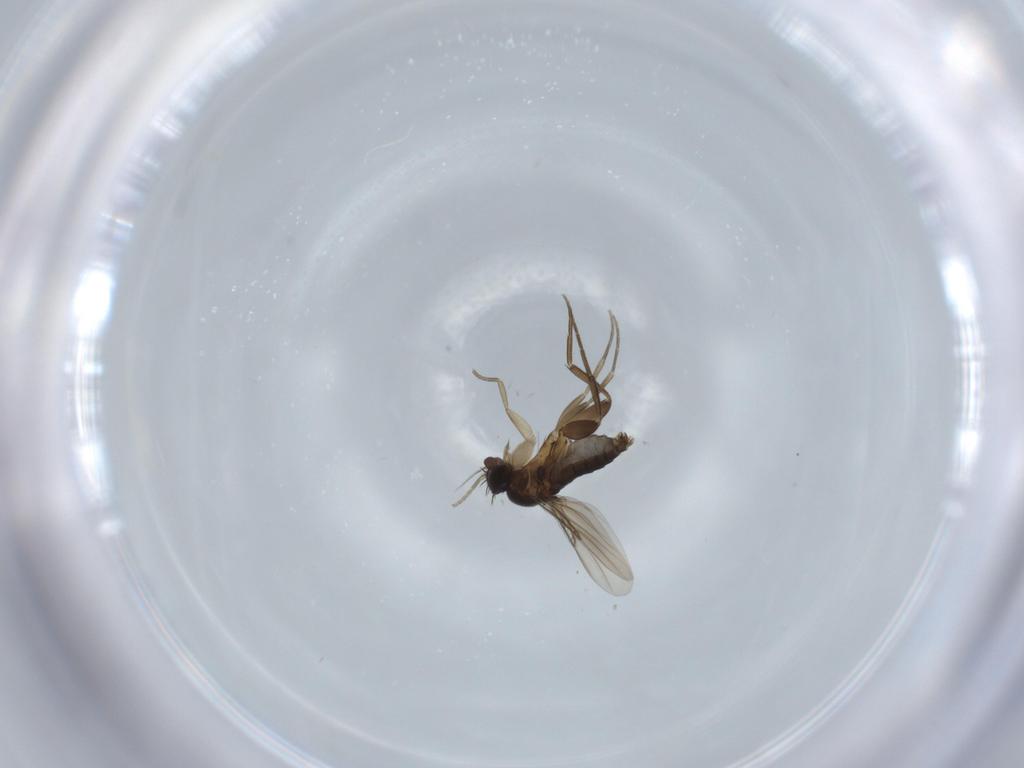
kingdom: Animalia
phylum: Arthropoda
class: Insecta
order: Diptera
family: Phoridae
